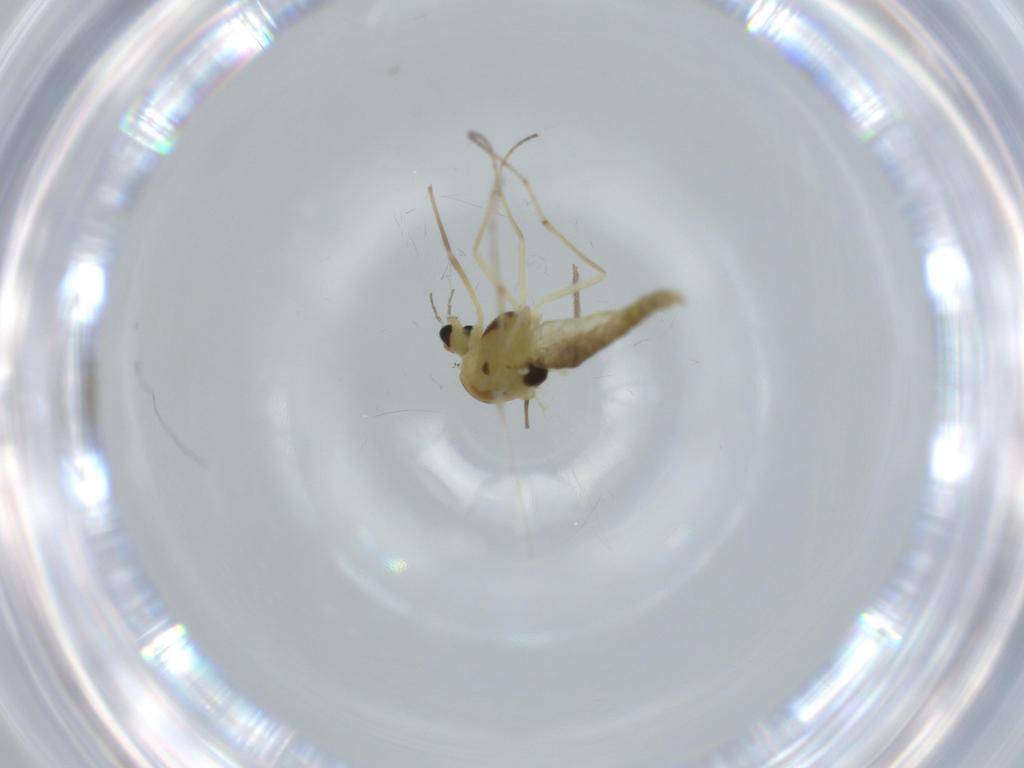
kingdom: Animalia
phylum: Arthropoda
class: Insecta
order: Diptera
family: Chironomidae
